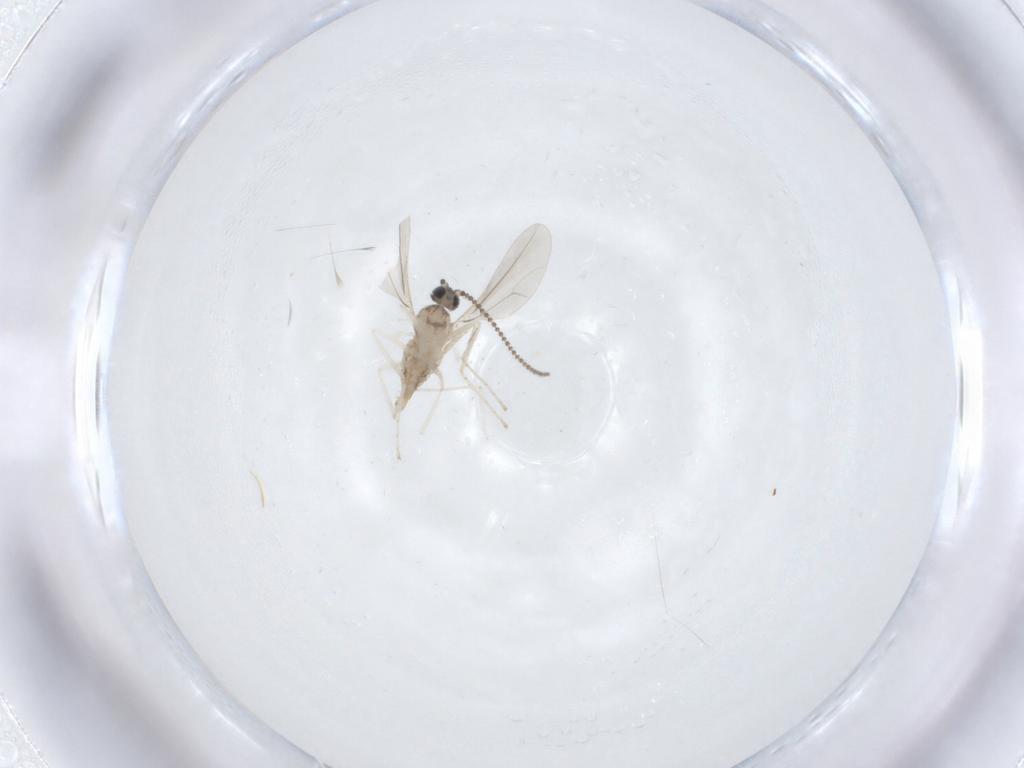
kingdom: Animalia
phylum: Arthropoda
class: Insecta
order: Diptera
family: Cecidomyiidae
